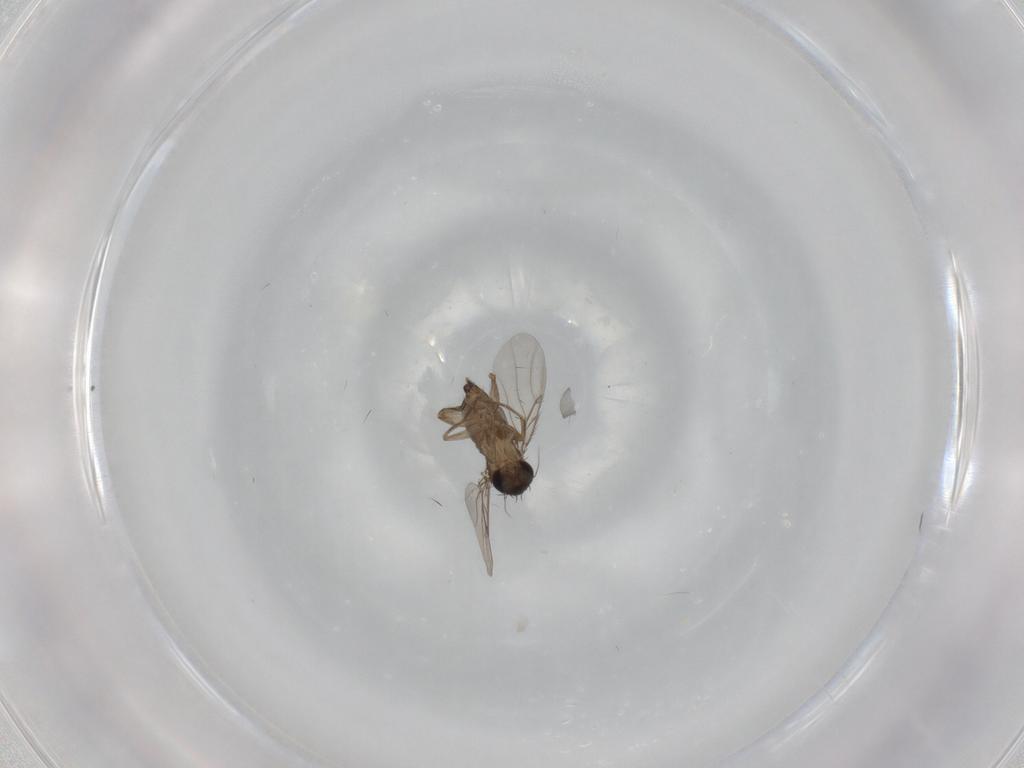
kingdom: Animalia
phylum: Arthropoda
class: Insecta
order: Diptera
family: Phoridae
